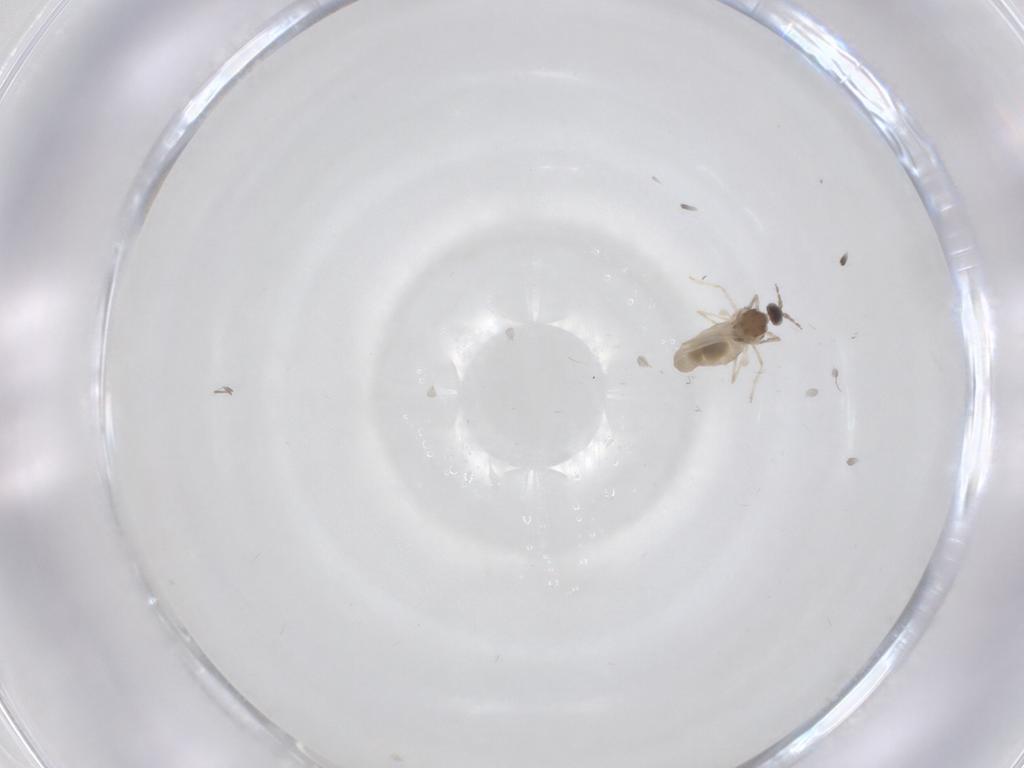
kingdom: Animalia
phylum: Arthropoda
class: Insecta
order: Diptera
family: Cecidomyiidae
